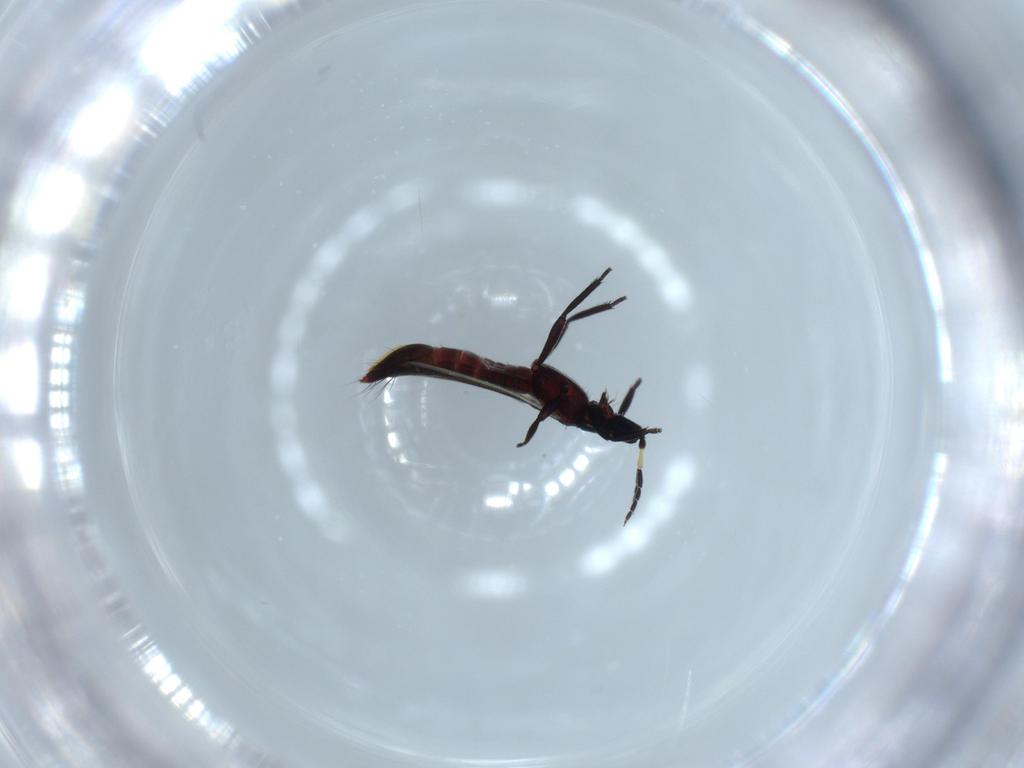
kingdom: Animalia
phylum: Arthropoda
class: Insecta
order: Thysanoptera
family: Aeolothripidae
